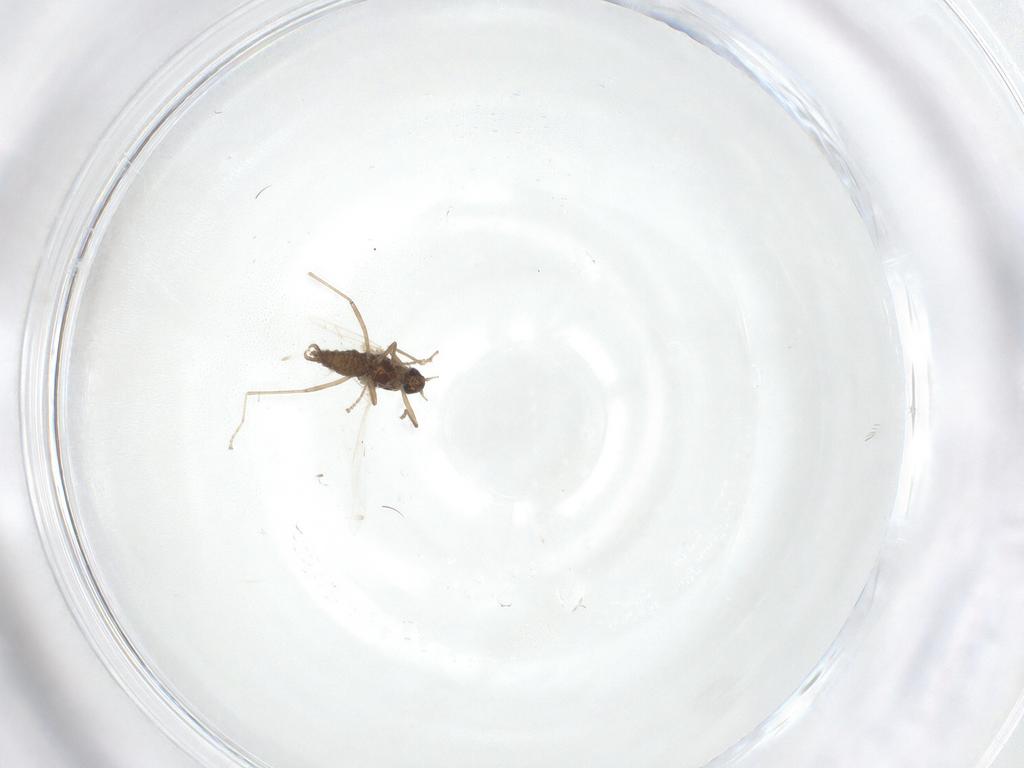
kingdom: Animalia
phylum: Arthropoda
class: Insecta
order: Diptera
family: Cecidomyiidae
